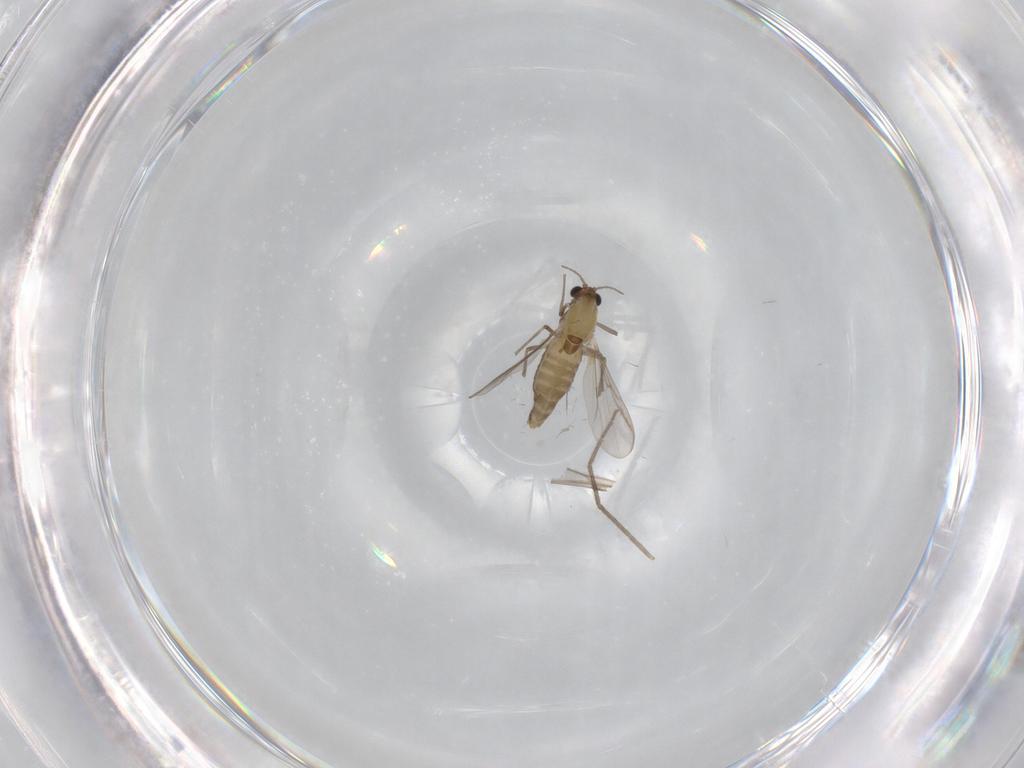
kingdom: Animalia
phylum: Arthropoda
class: Insecta
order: Diptera
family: Chironomidae
